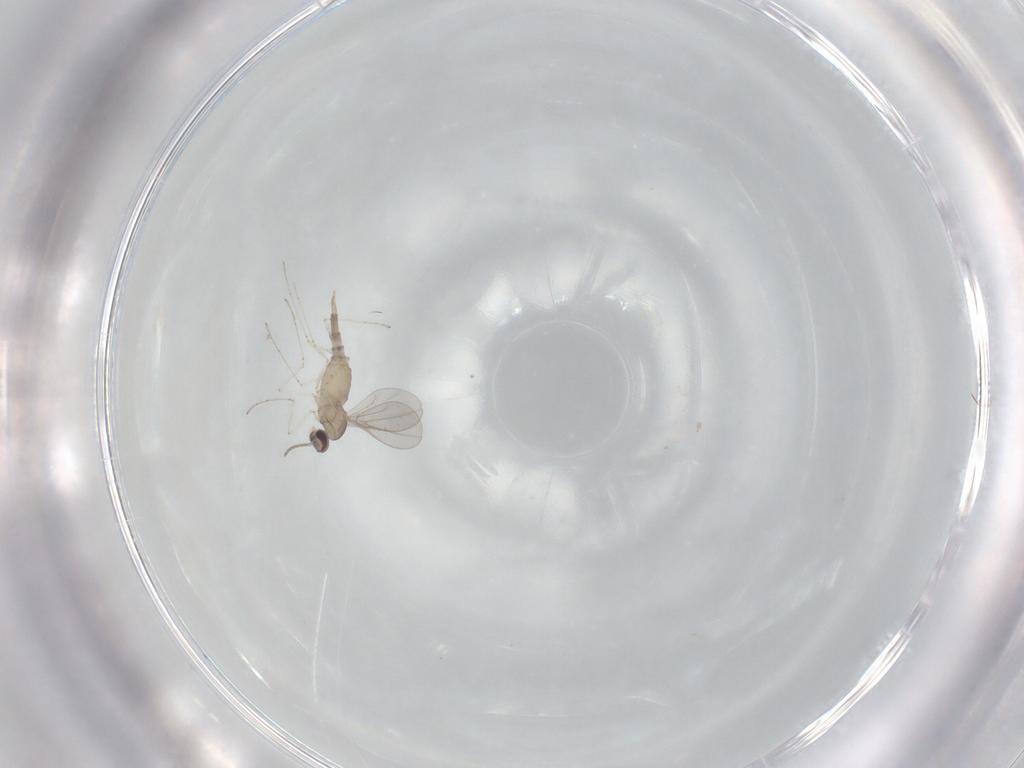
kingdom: Animalia
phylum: Arthropoda
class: Insecta
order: Diptera
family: Cecidomyiidae
